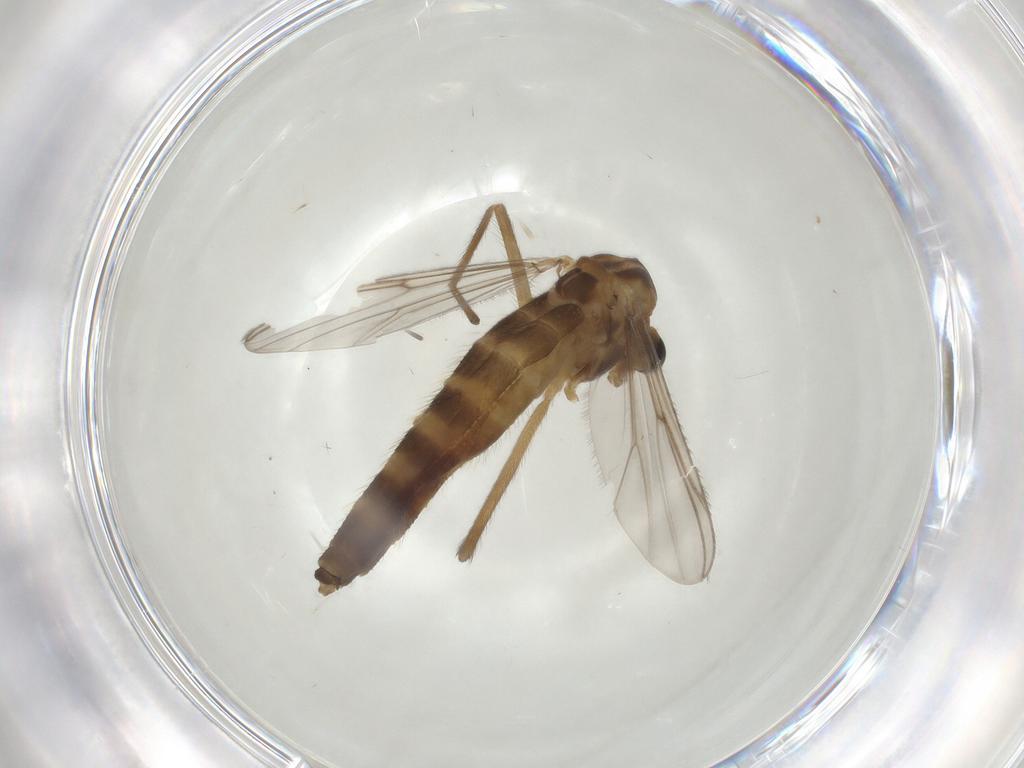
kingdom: Animalia
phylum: Arthropoda
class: Insecta
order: Diptera
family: Chironomidae
